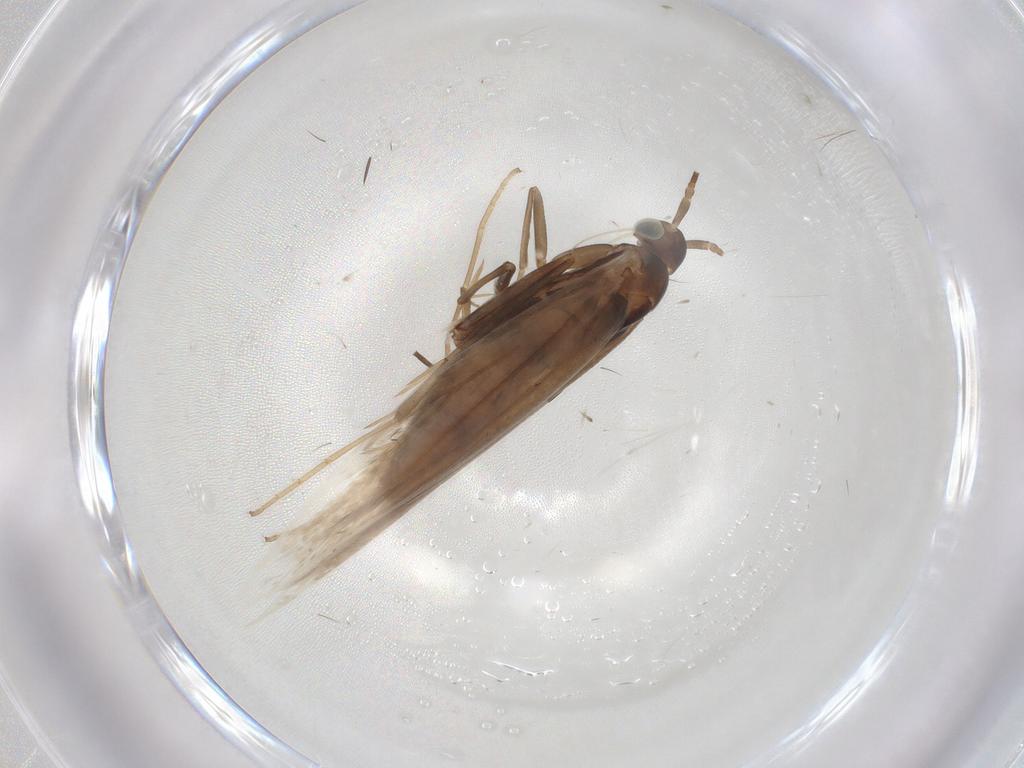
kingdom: Animalia
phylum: Arthropoda
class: Insecta
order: Lepidoptera
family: Coleophoridae
